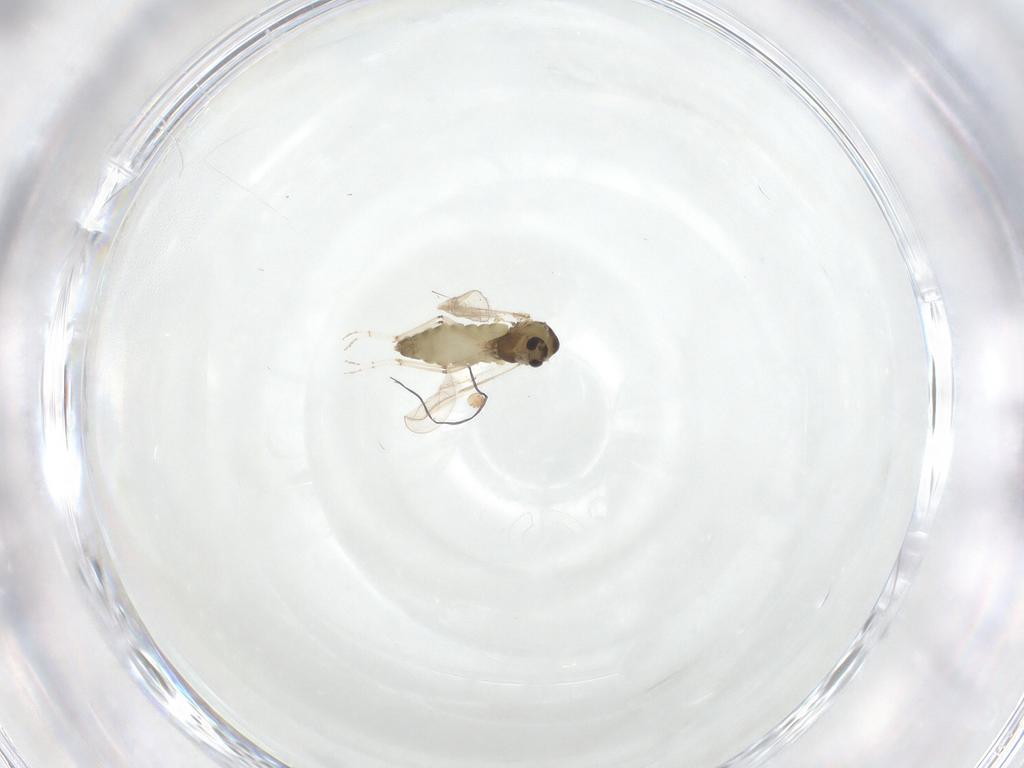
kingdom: Animalia
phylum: Arthropoda
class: Insecta
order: Diptera
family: Chironomidae
